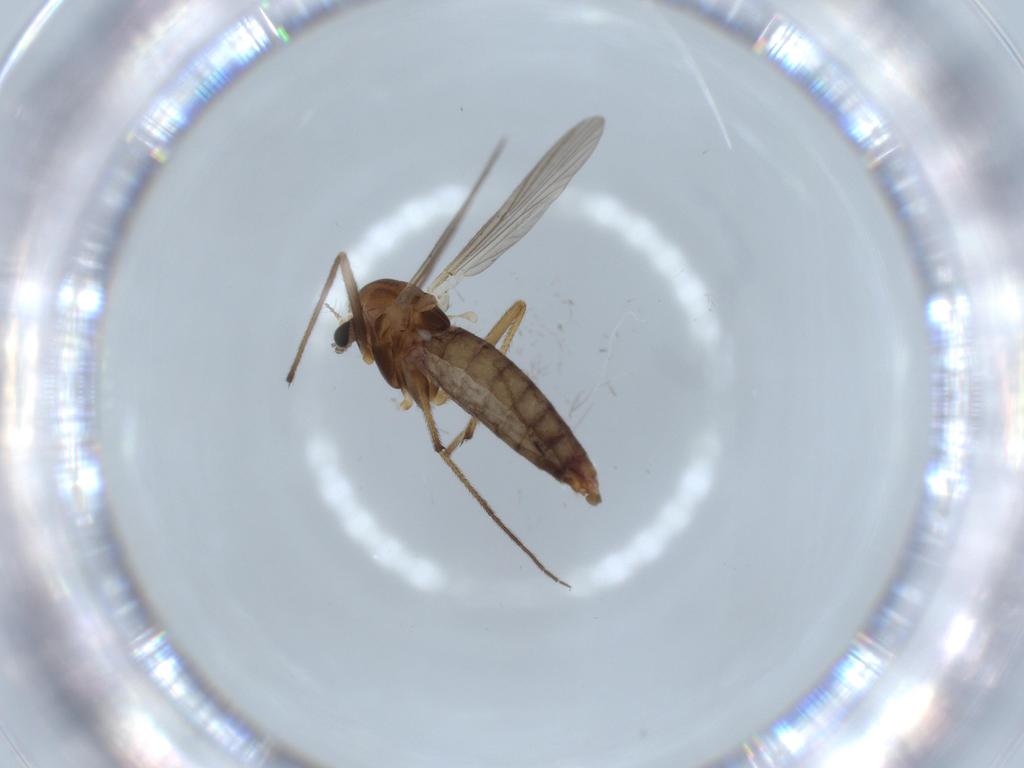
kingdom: Animalia
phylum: Arthropoda
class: Insecta
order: Diptera
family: Chironomidae
